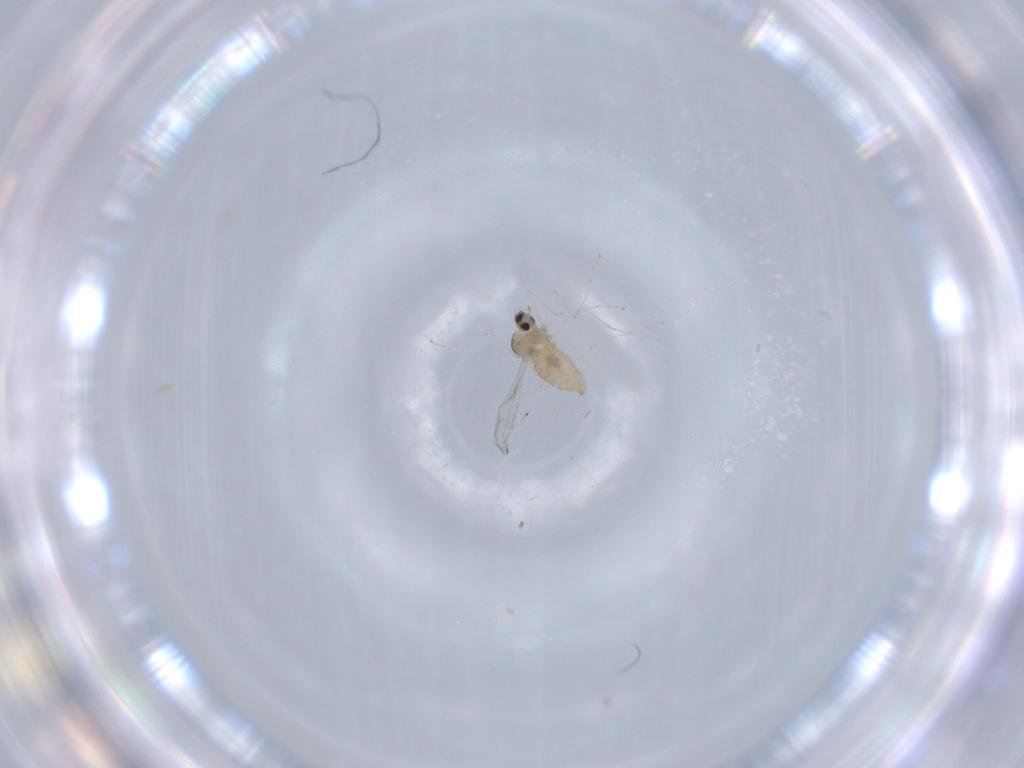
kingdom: Animalia
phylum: Arthropoda
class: Insecta
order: Diptera
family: Cecidomyiidae
